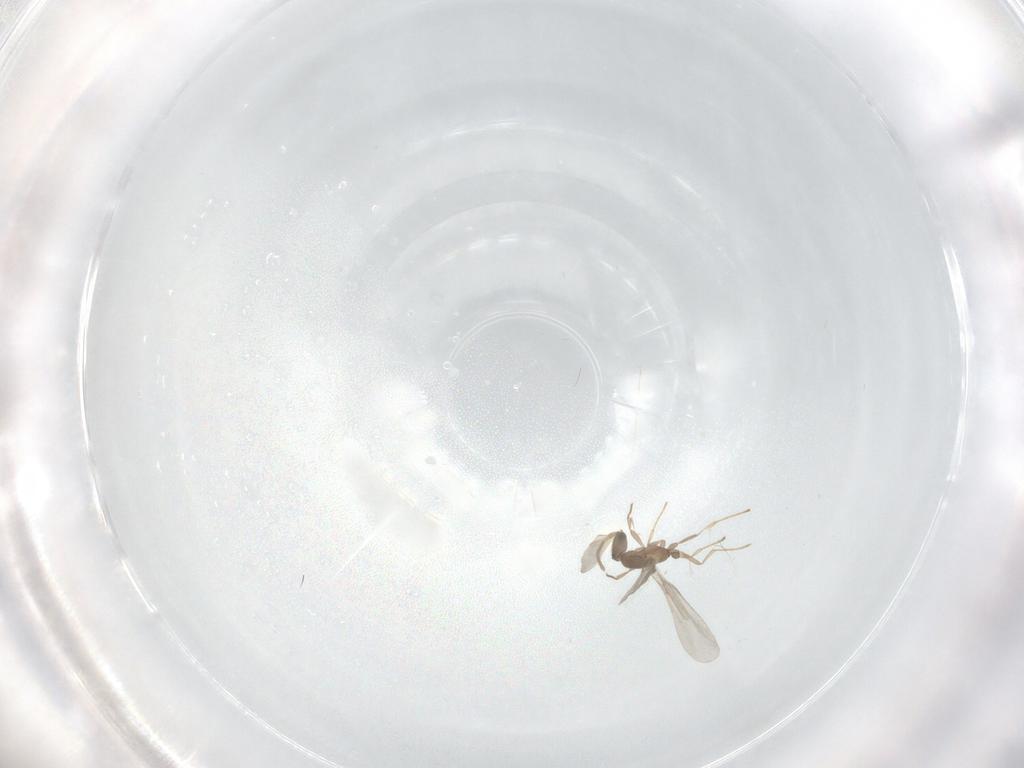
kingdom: Animalia
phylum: Arthropoda
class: Insecta
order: Hymenoptera
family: Formicidae
